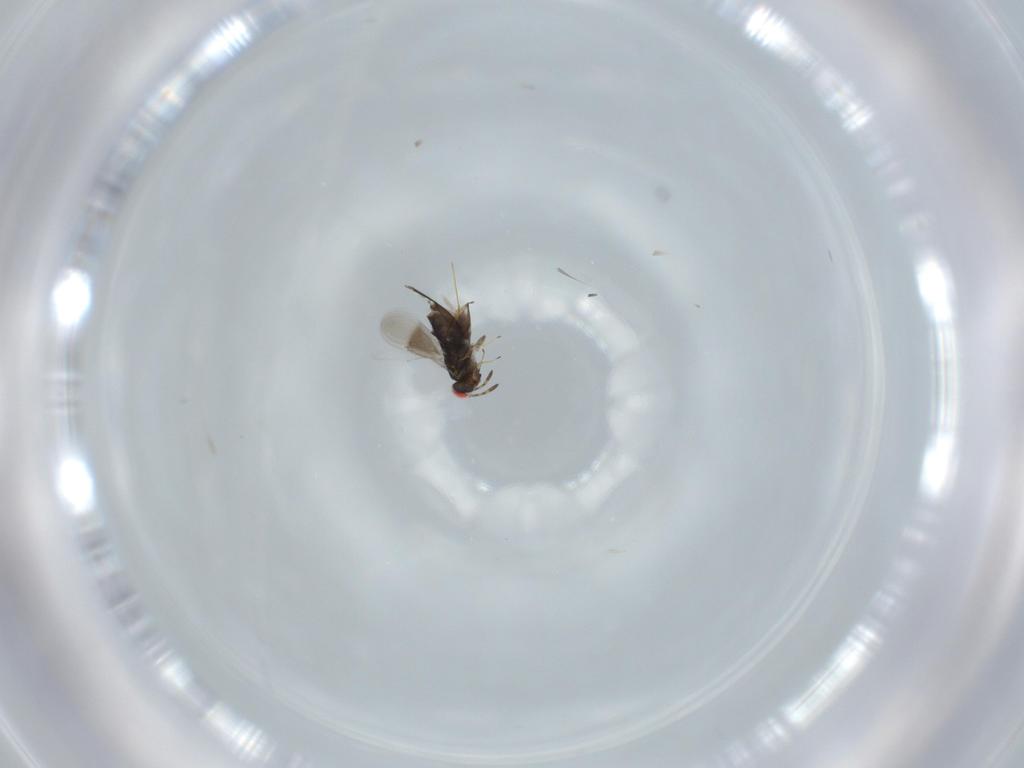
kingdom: Animalia
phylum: Arthropoda
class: Insecta
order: Hymenoptera
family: Azotidae
